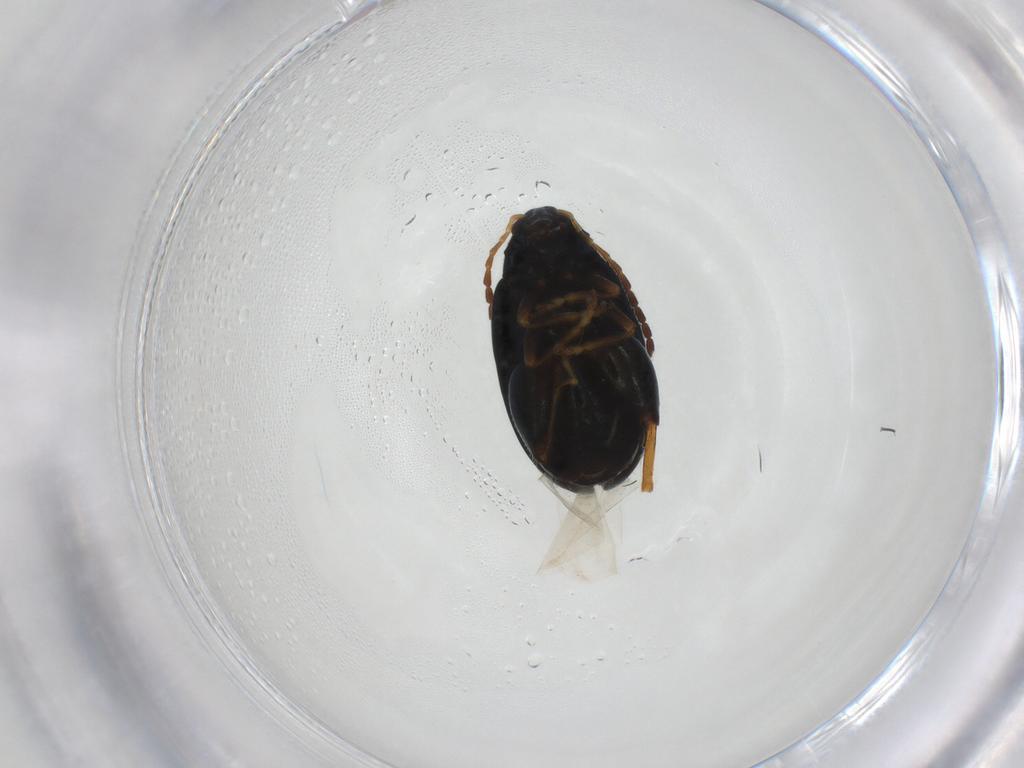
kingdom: Animalia
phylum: Arthropoda
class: Insecta
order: Coleoptera
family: Chrysomelidae
